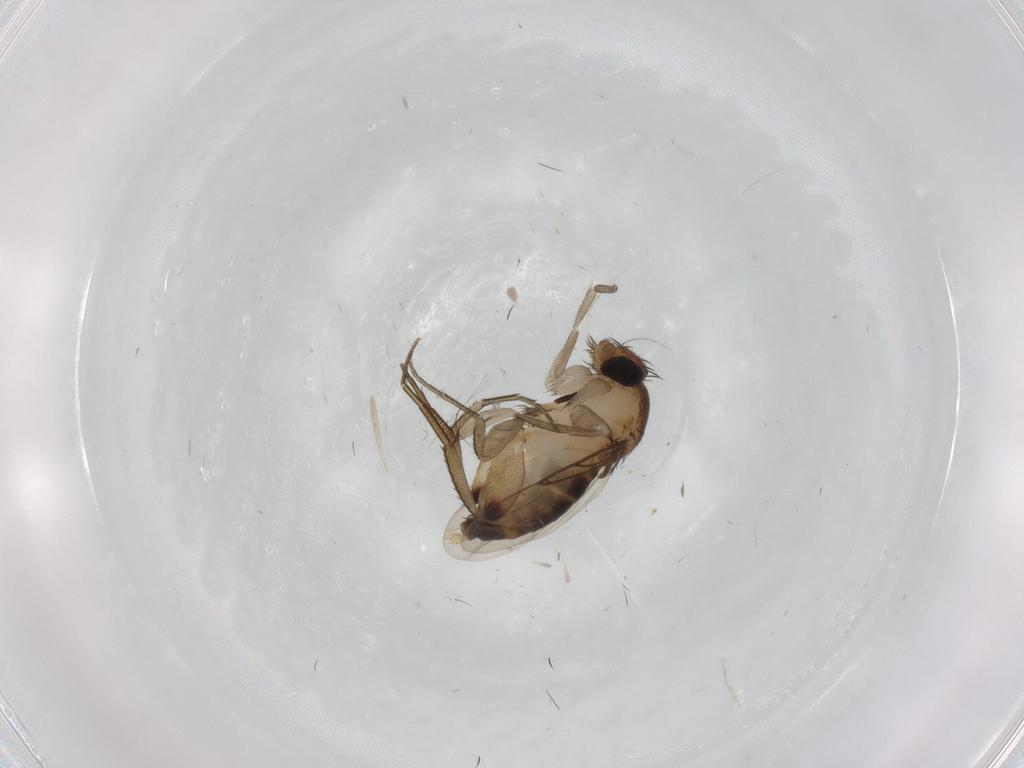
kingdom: Animalia
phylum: Arthropoda
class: Insecta
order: Diptera
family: Phoridae
